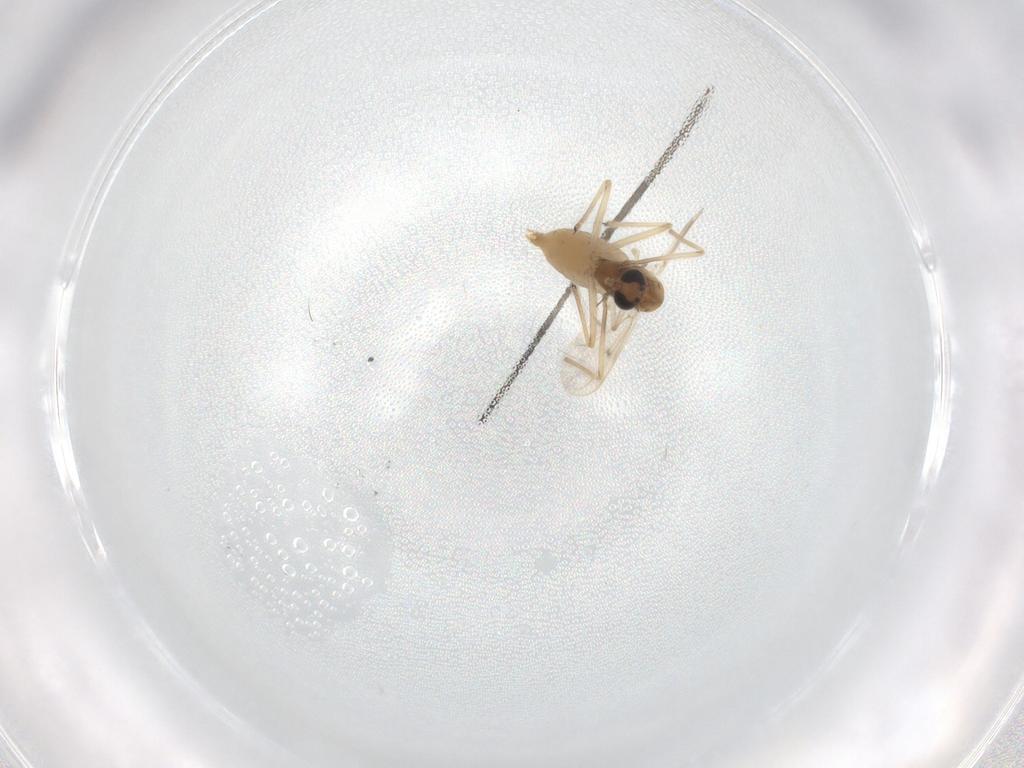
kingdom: Animalia
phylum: Arthropoda
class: Insecta
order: Diptera
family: Chironomidae
